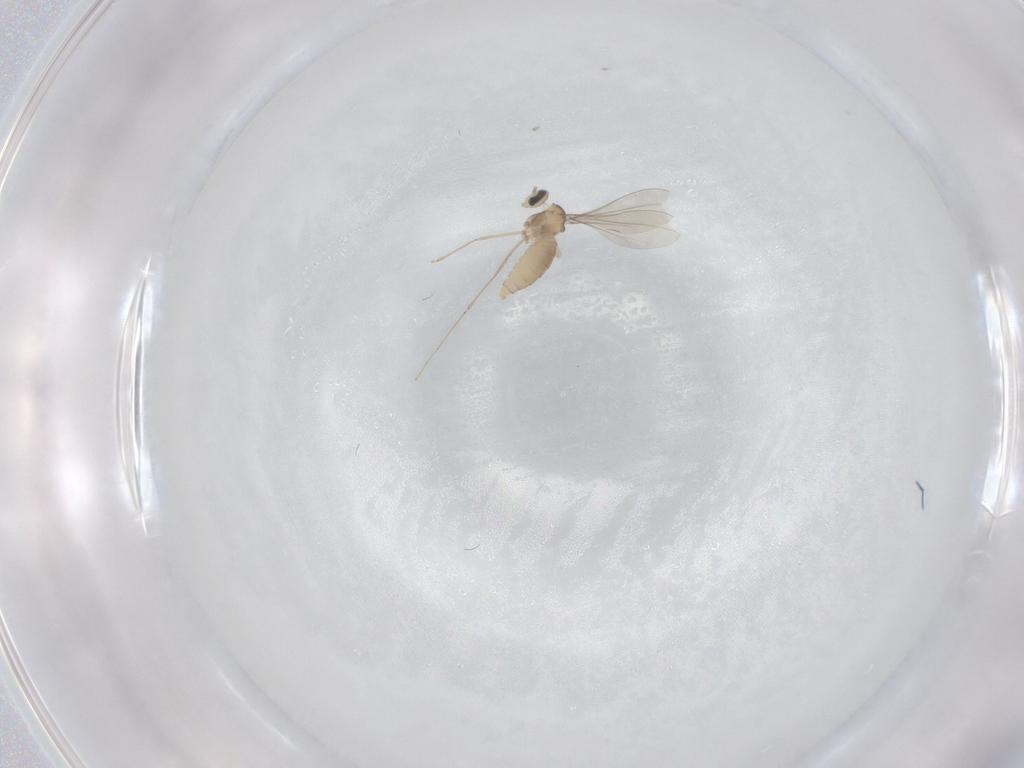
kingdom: Animalia
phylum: Arthropoda
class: Insecta
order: Diptera
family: Cecidomyiidae
